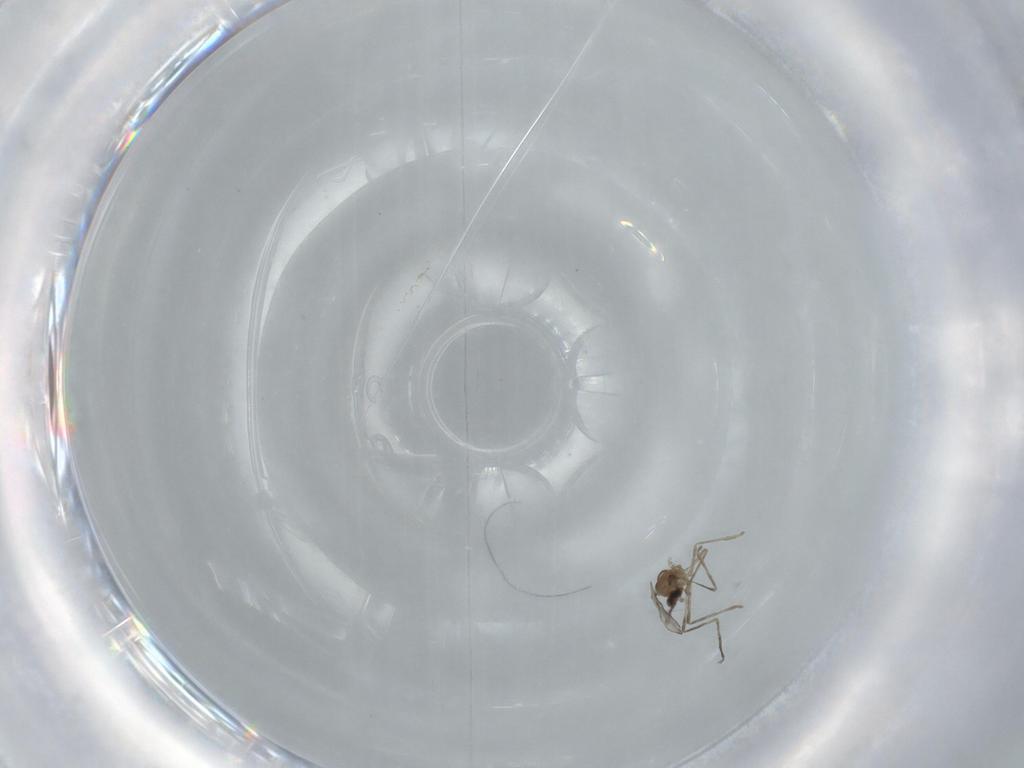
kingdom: Animalia
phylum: Arthropoda
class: Insecta
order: Diptera
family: Cecidomyiidae
